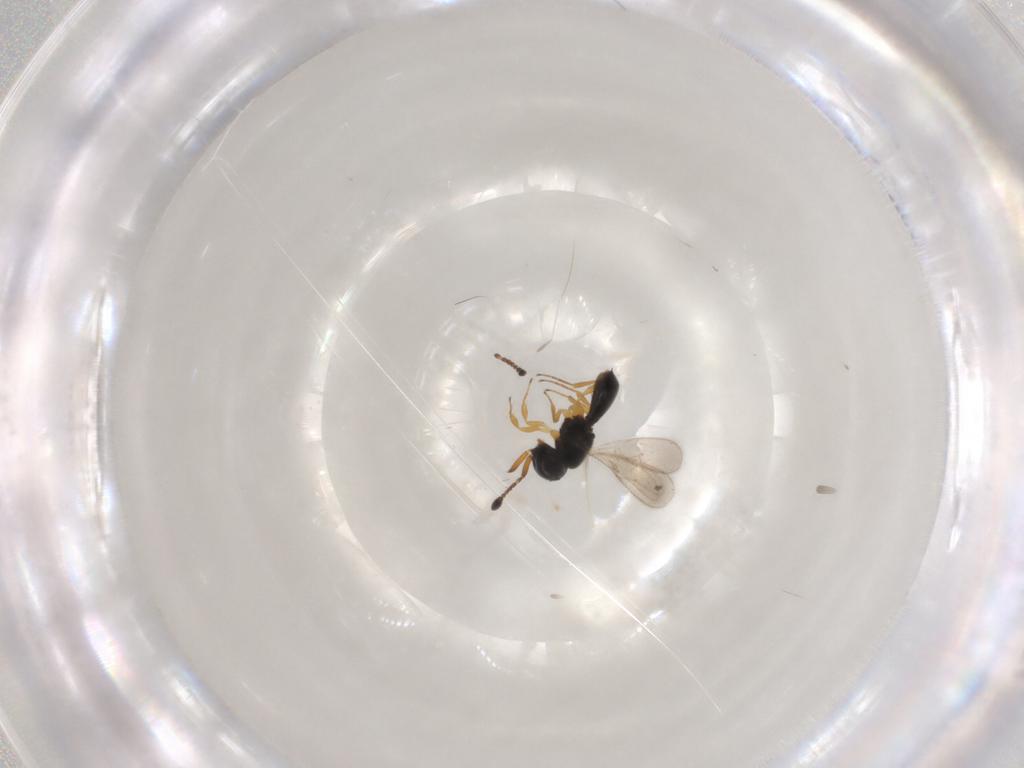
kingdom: Animalia
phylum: Arthropoda
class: Insecta
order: Hymenoptera
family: Scelionidae
